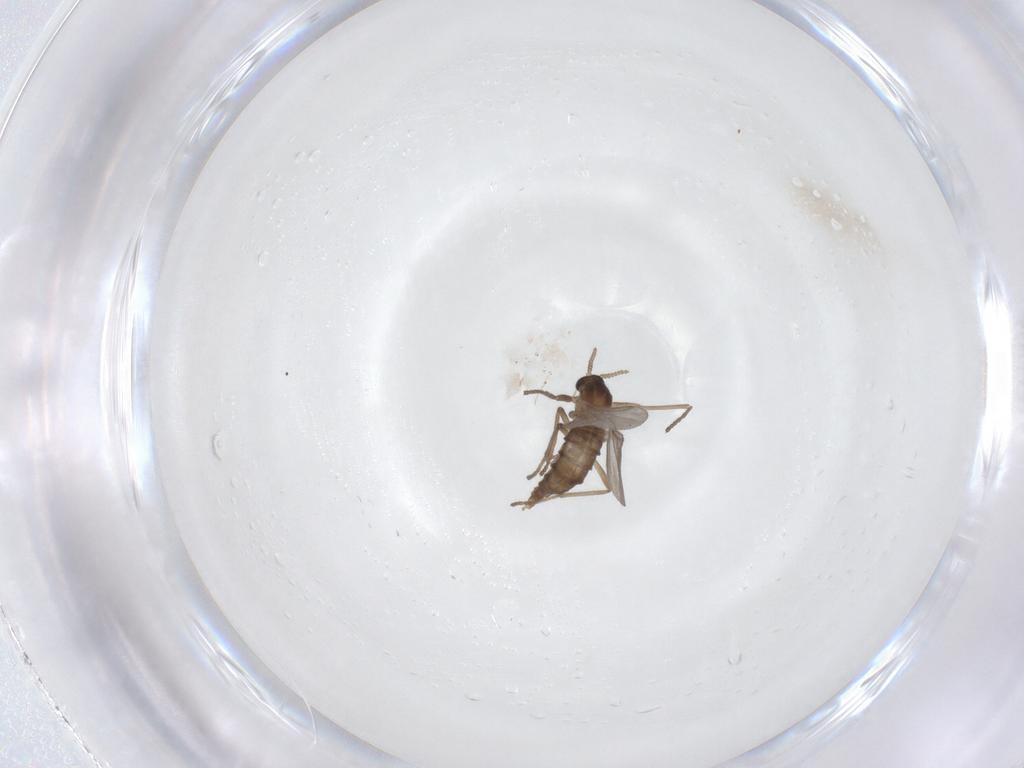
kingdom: Animalia
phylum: Arthropoda
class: Insecta
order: Diptera
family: Cecidomyiidae
